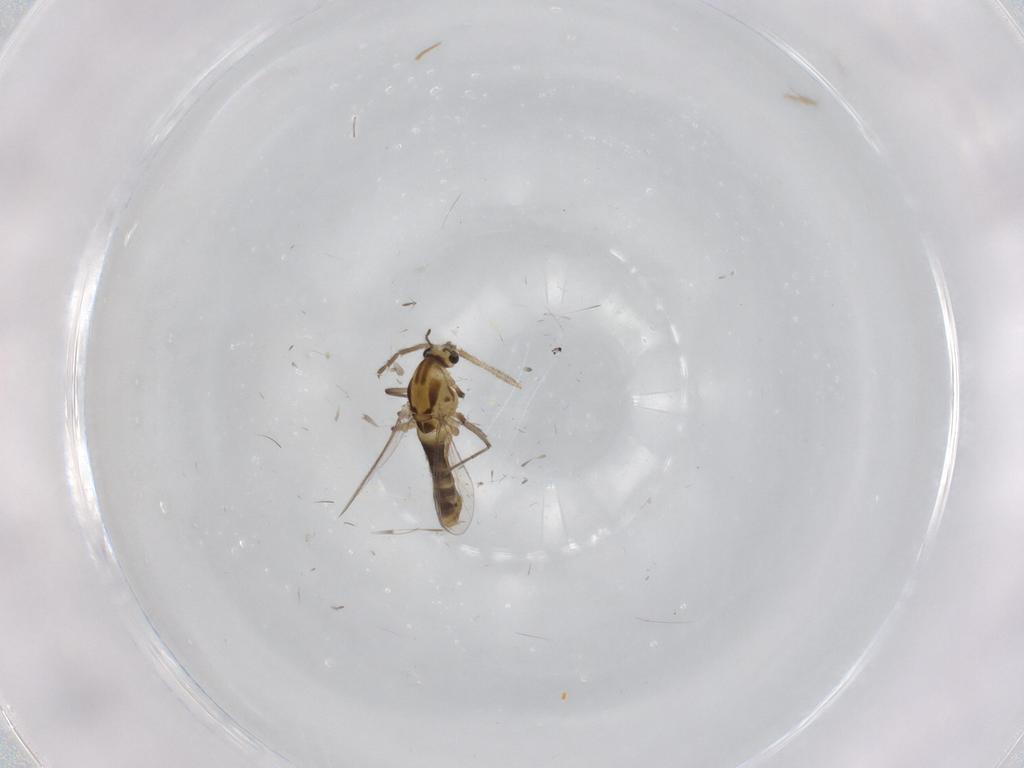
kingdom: Animalia
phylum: Arthropoda
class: Insecta
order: Diptera
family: Chironomidae
